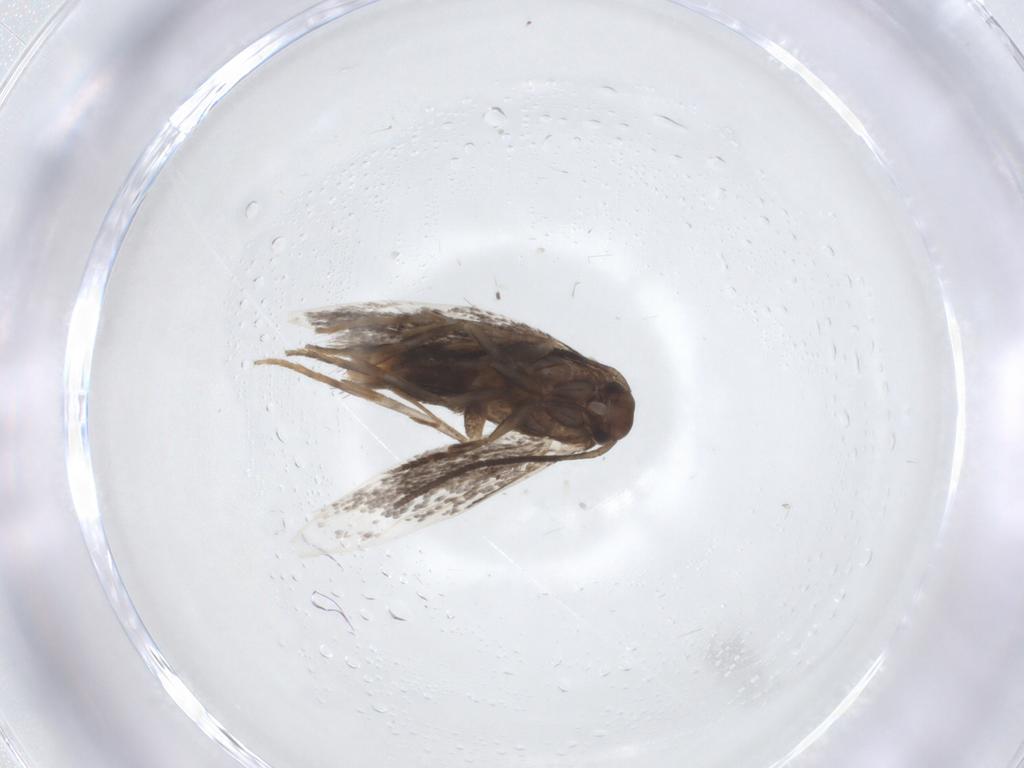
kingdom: Animalia
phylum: Arthropoda
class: Insecta
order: Lepidoptera
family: Elachistidae
